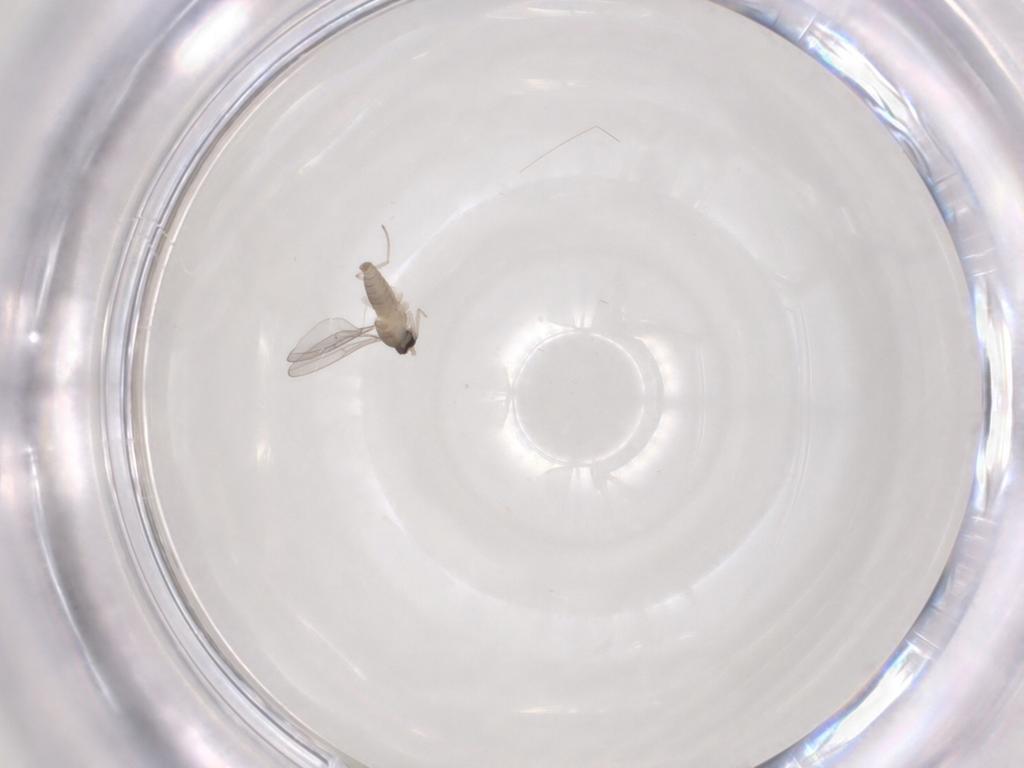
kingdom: Animalia
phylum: Arthropoda
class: Insecta
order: Diptera
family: Cecidomyiidae
